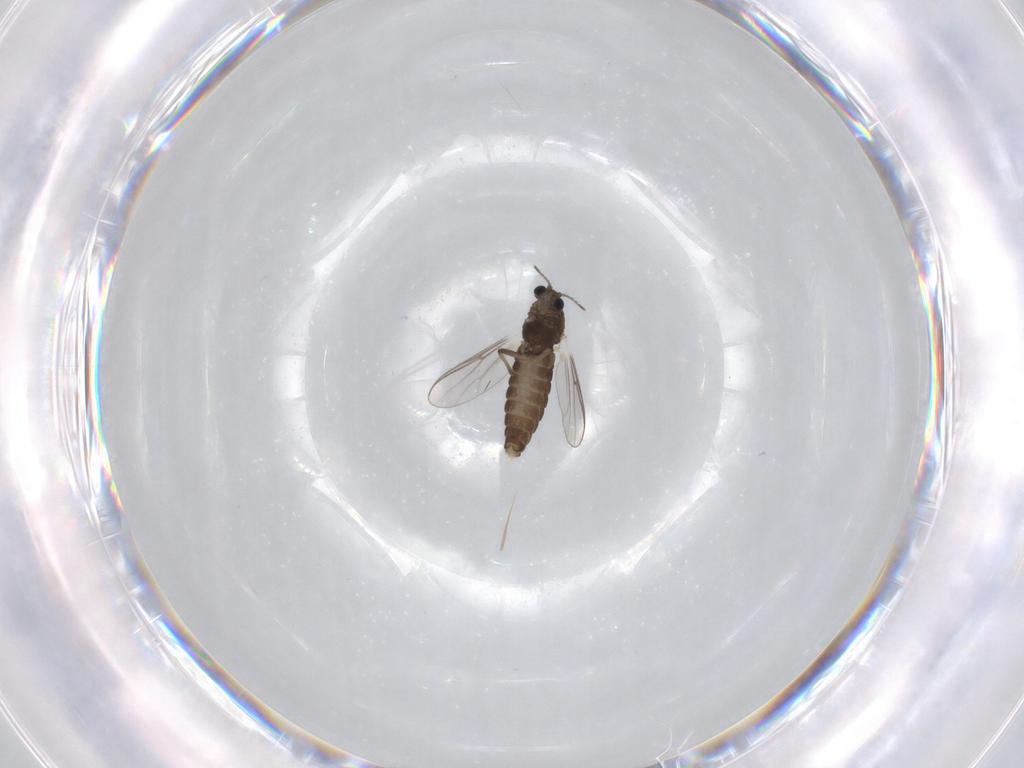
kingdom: Animalia
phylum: Arthropoda
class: Insecta
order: Diptera
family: Chironomidae
